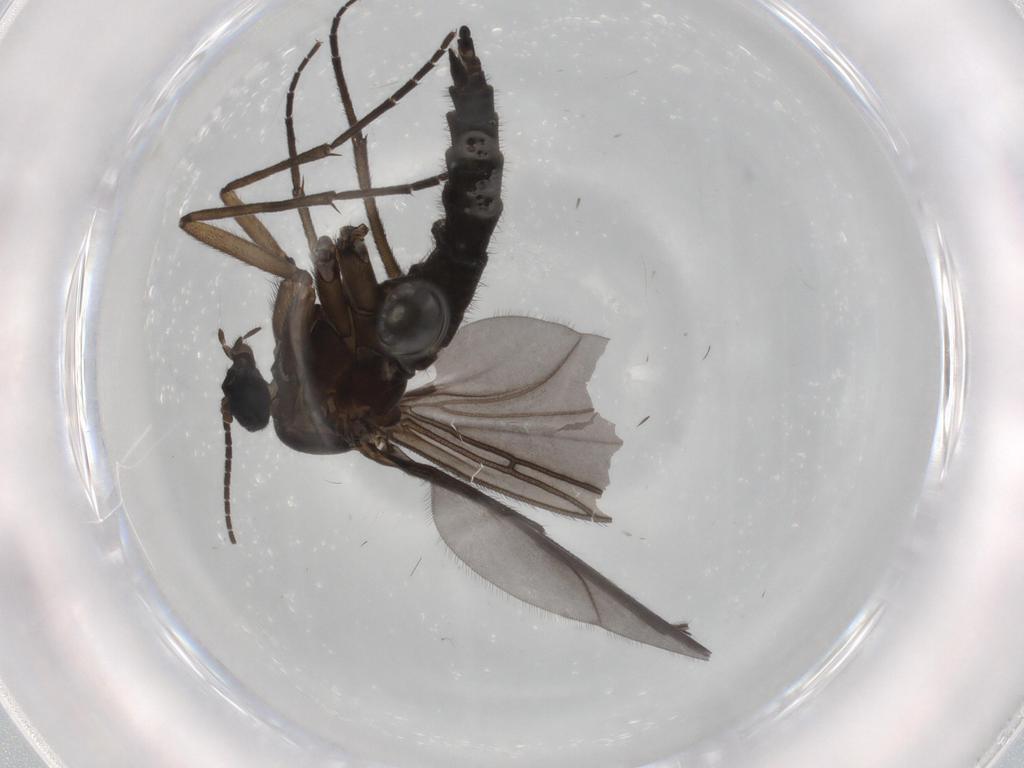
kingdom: Animalia
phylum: Arthropoda
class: Insecta
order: Diptera
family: Sciaridae
